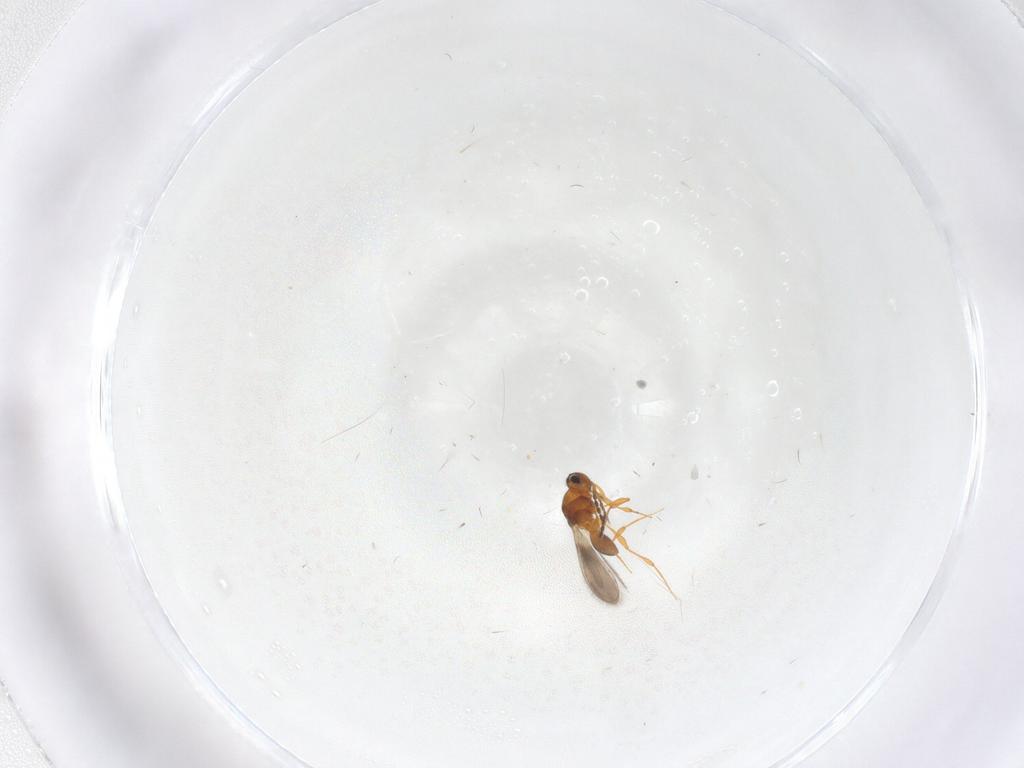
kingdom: Animalia
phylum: Arthropoda
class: Insecta
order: Hymenoptera
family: Platygastridae
